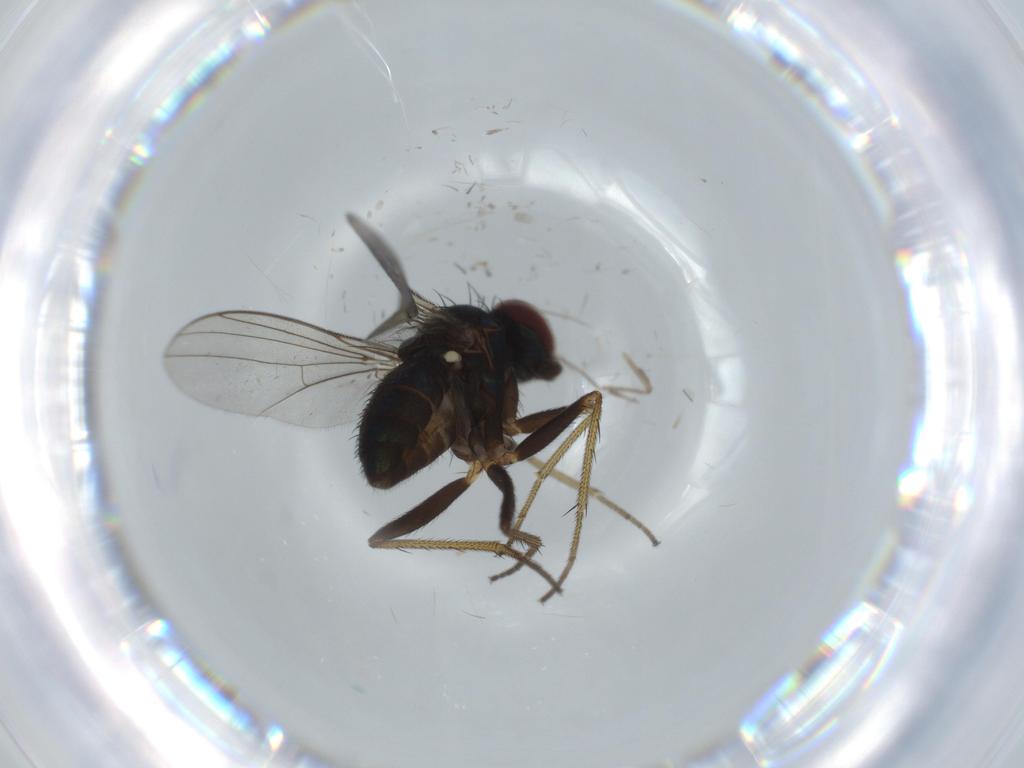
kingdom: Animalia
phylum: Arthropoda
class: Insecta
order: Diptera
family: Dolichopodidae
